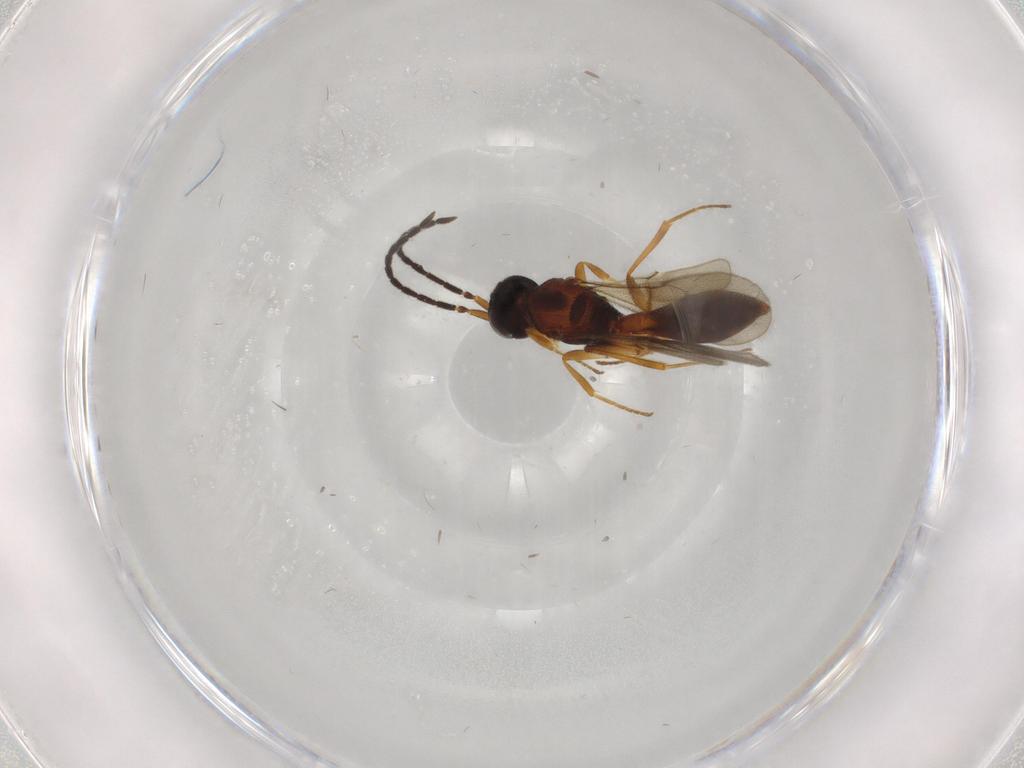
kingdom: Animalia
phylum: Arthropoda
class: Insecta
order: Hymenoptera
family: Scelionidae
